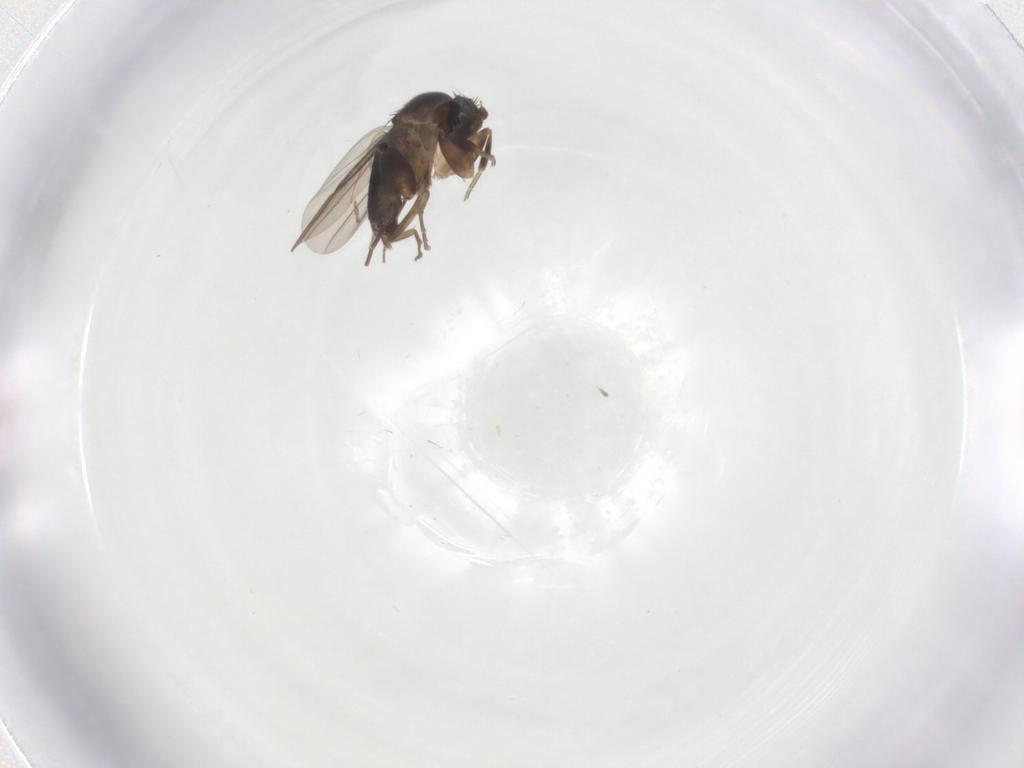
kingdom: Animalia
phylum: Arthropoda
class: Insecta
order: Diptera
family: Phoridae
